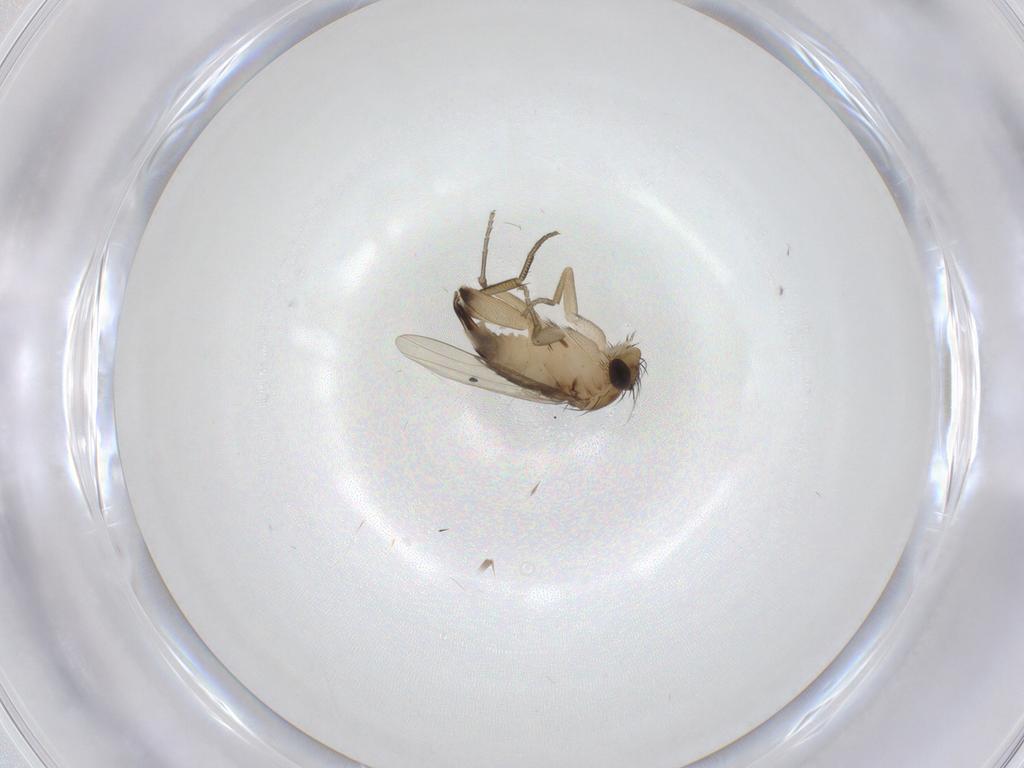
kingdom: Animalia
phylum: Arthropoda
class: Insecta
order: Diptera
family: Phoridae
